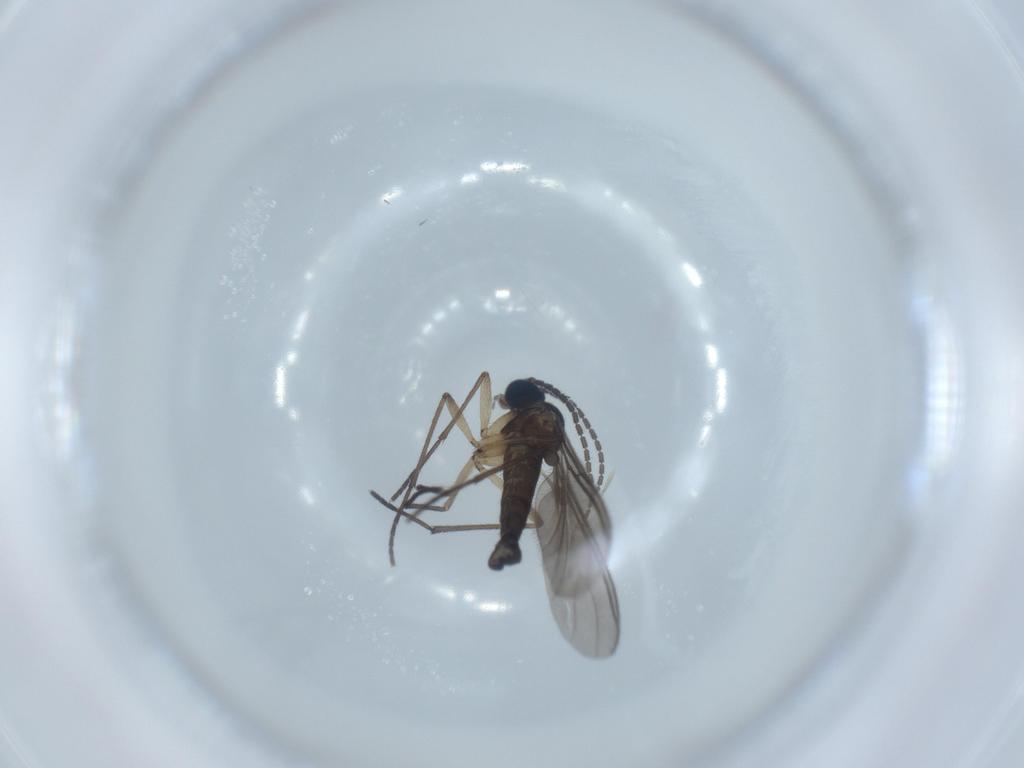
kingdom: Animalia
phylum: Arthropoda
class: Insecta
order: Diptera
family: Sciaridae
